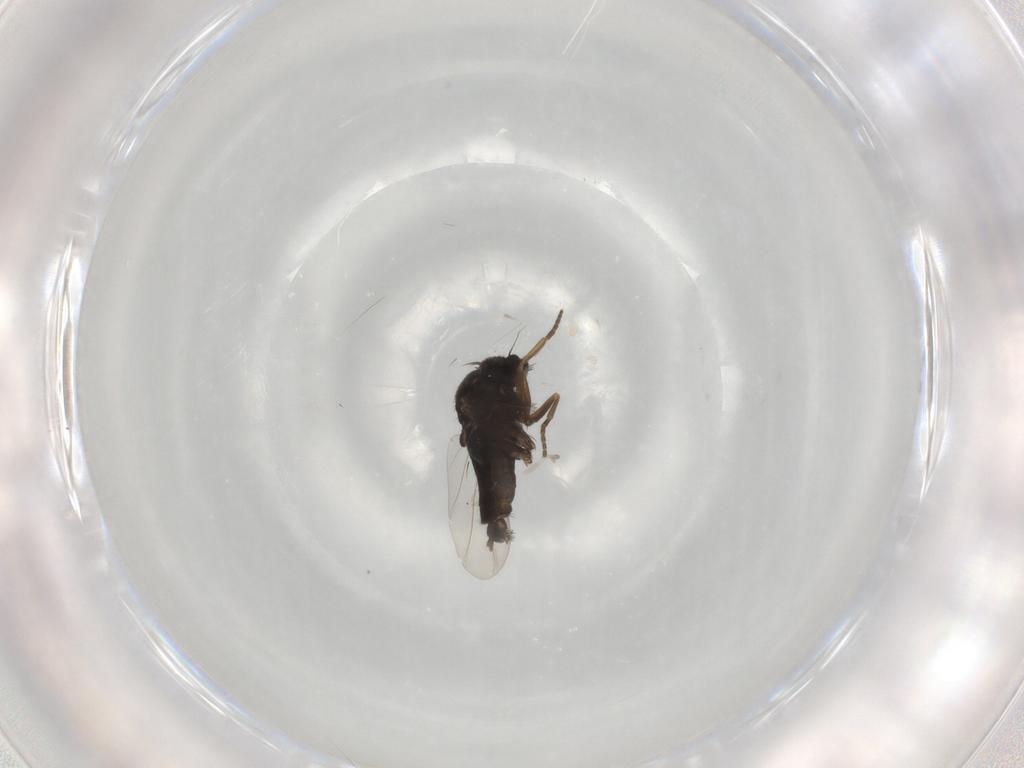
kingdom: Animalia
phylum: Arthropoda
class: Insecta
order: Diptera
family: Phoridae
